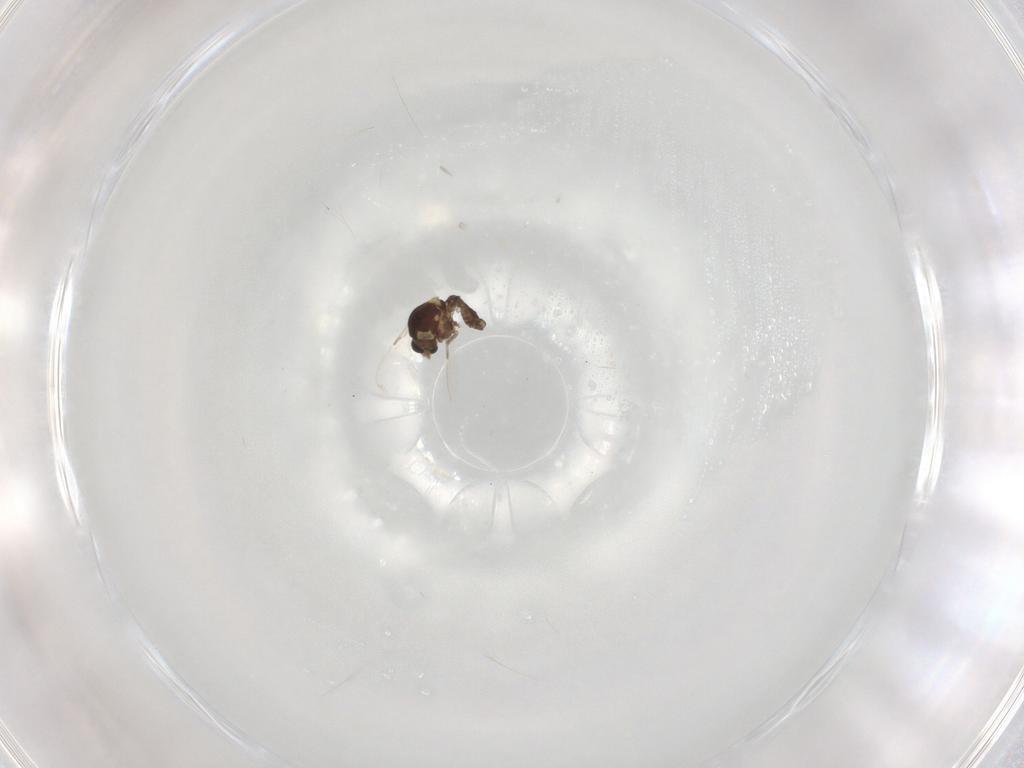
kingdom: Animalia
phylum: Arthropoda
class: Insecta
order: Diptera
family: Ceratopogonidae
